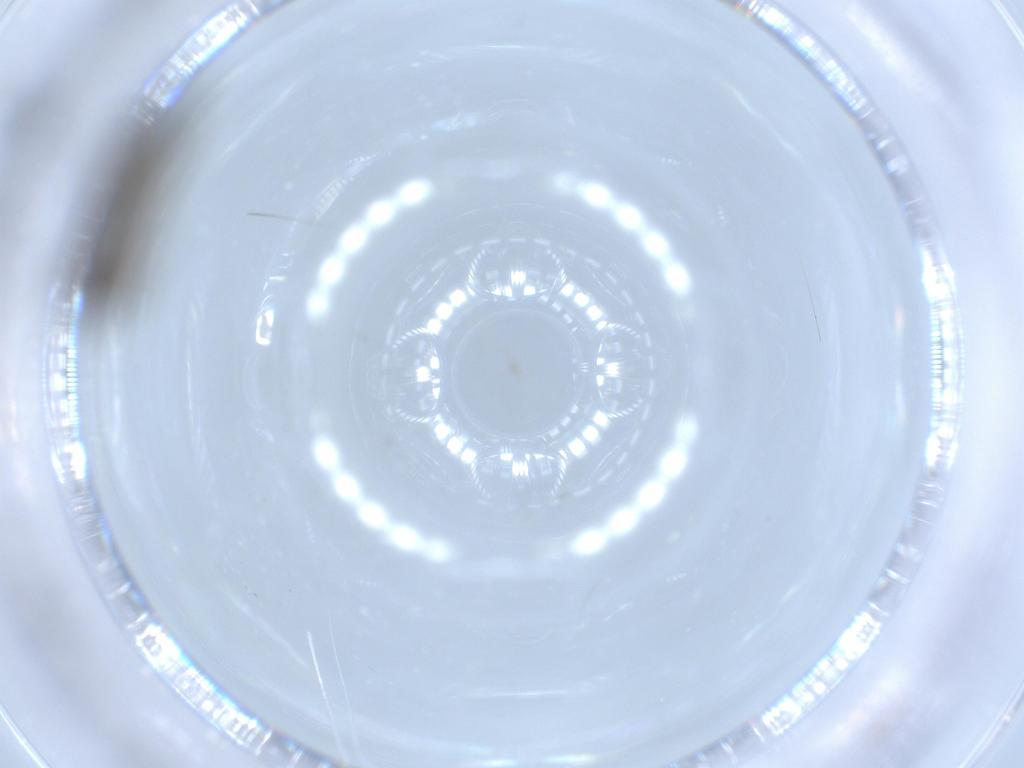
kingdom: Animalia
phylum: Arthropoda
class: Insecta
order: Diptera
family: Sciaridae
